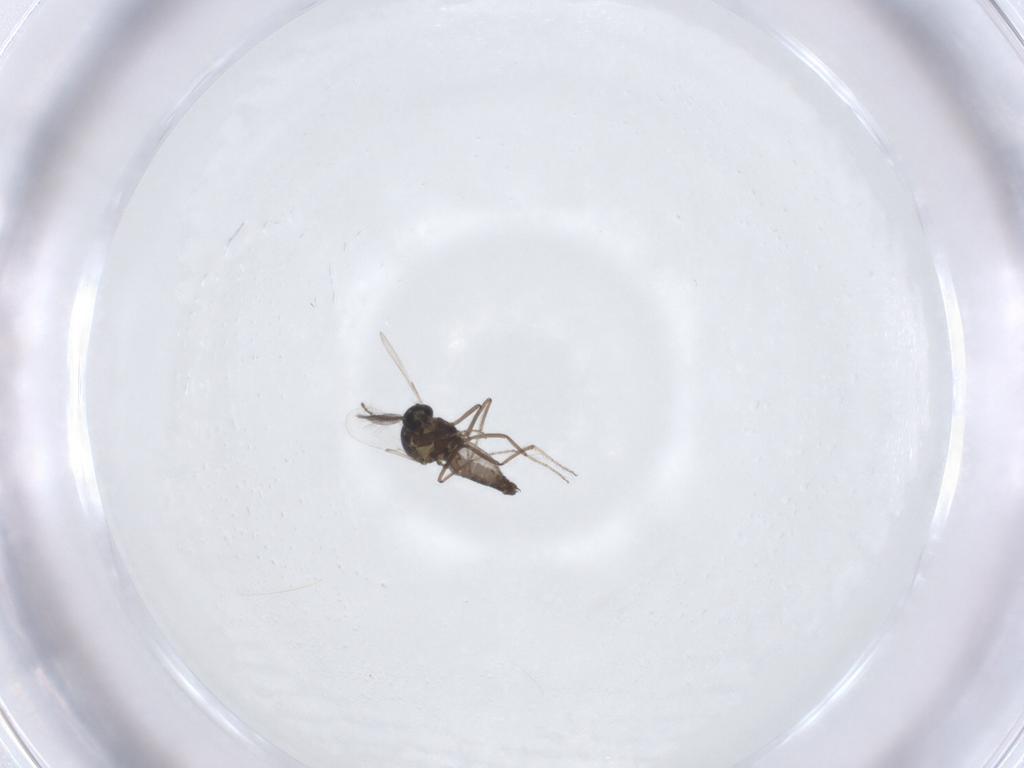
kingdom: Animalia
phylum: Arthropoda
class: Insecta
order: Diptera
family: Ceratopogonidae
